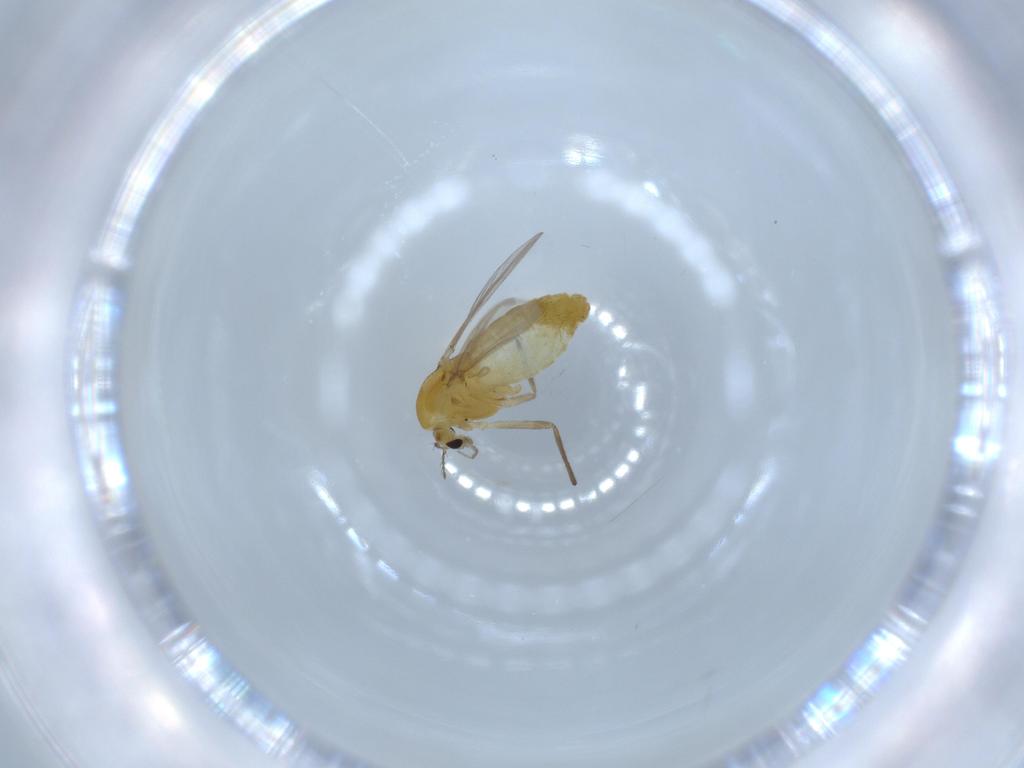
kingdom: Animalia
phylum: Arthropoda
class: Insecta
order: Diptera
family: Chironomidae
